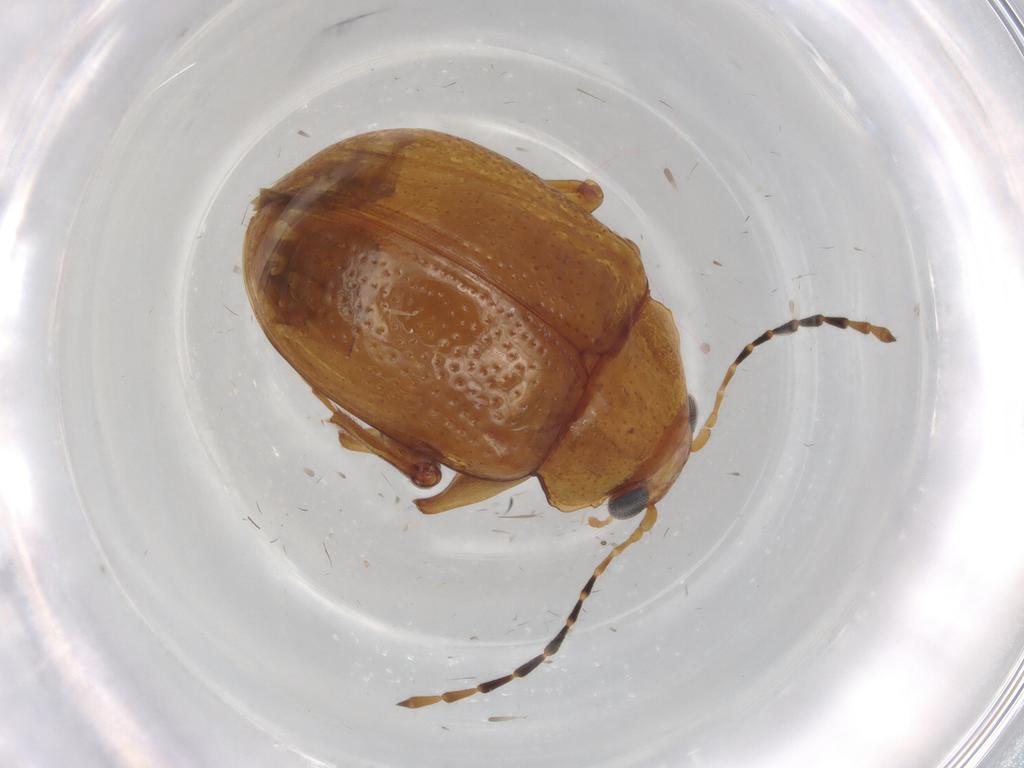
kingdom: Animalia
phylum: Arthropoda
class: Insecta
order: Coleoptera
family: Chrysomelidae
